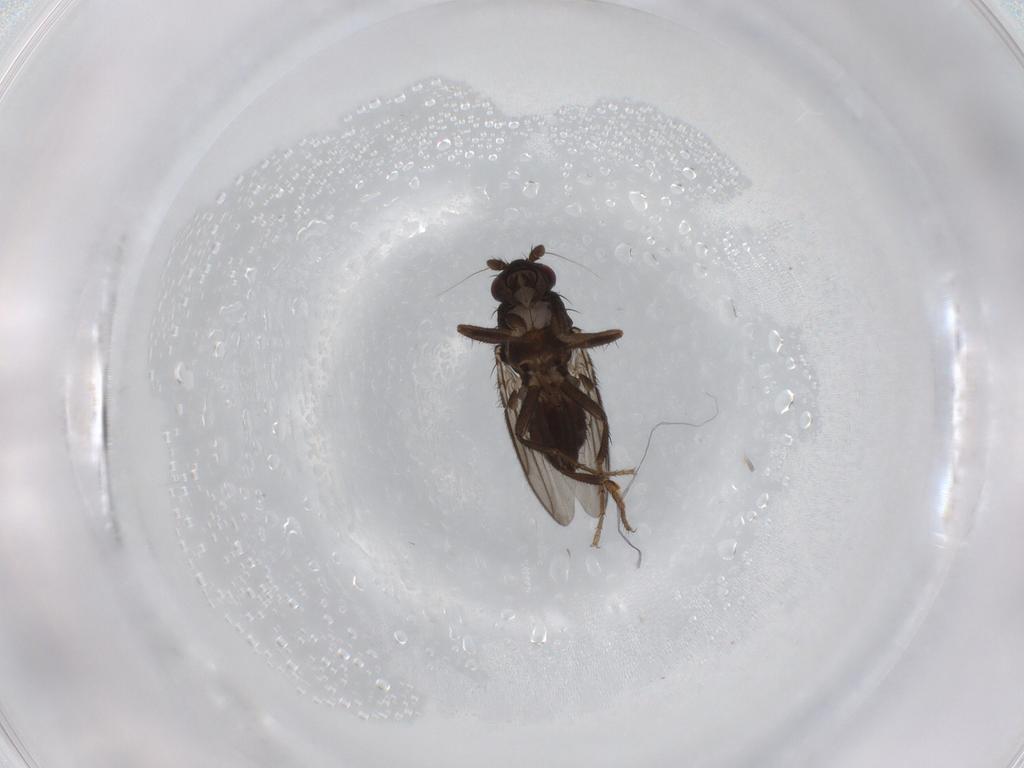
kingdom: Animalia
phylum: Arthropoda
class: Insecta
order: Diptera
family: Sphaeroceridae
